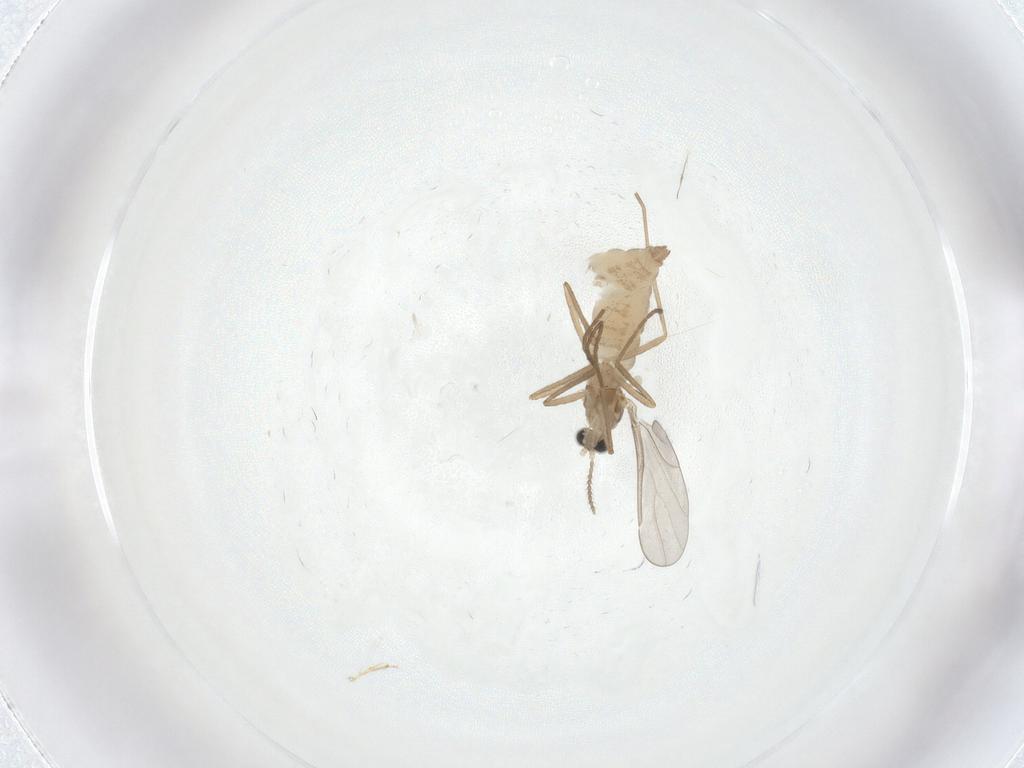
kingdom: Animalia
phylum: Arthropoda
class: Insecta
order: Diptera
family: Cecidomyiidae
